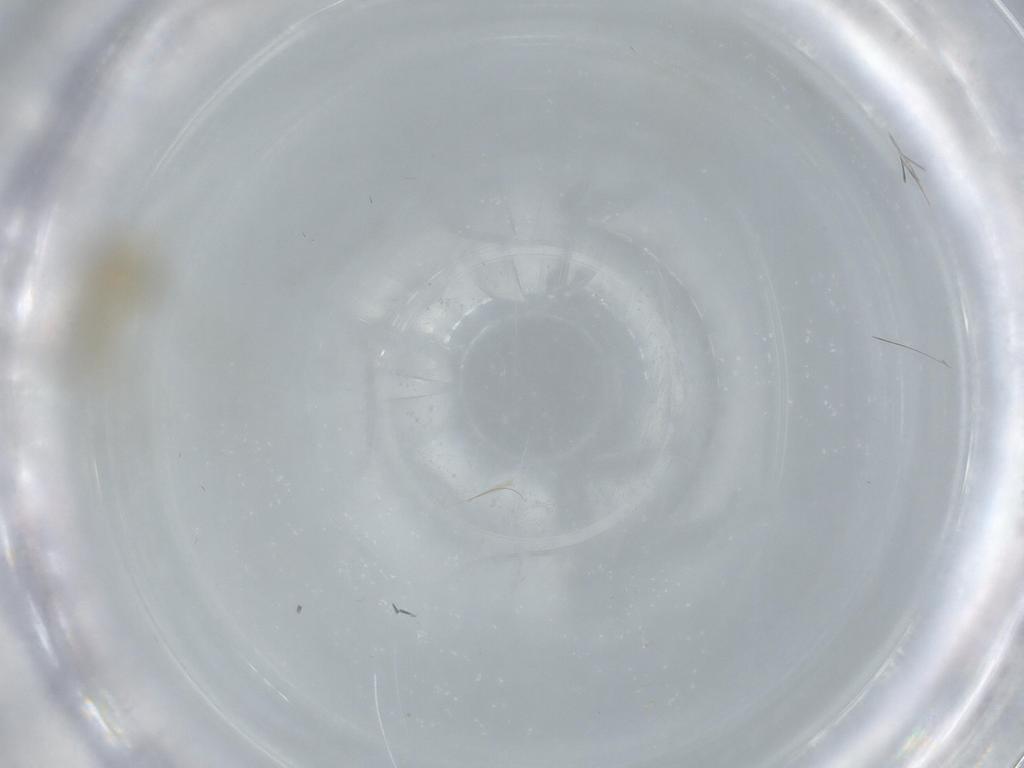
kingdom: Animalia
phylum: Arthropoda
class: Insecta
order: Diptera
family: Chironomidae
